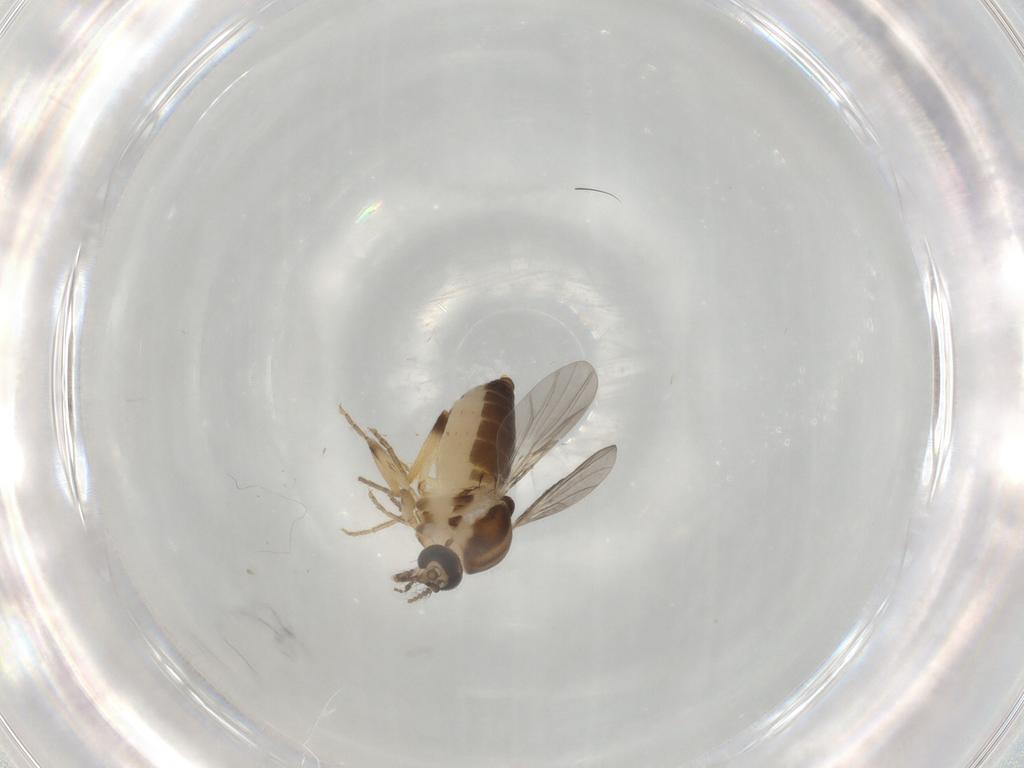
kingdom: Animalia
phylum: Arthropoda
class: Insecta
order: Diptera
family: Ceratopogonidae
